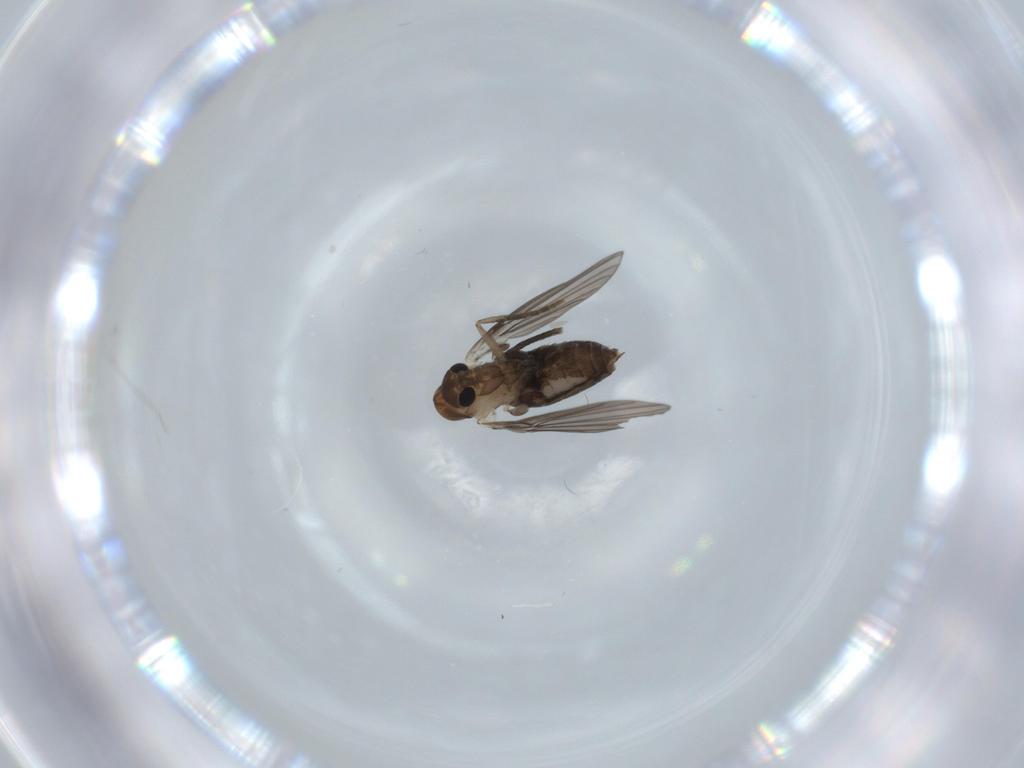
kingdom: Animalia
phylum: Arthropoda
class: Insecta
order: Diptera
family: Psychodidae
